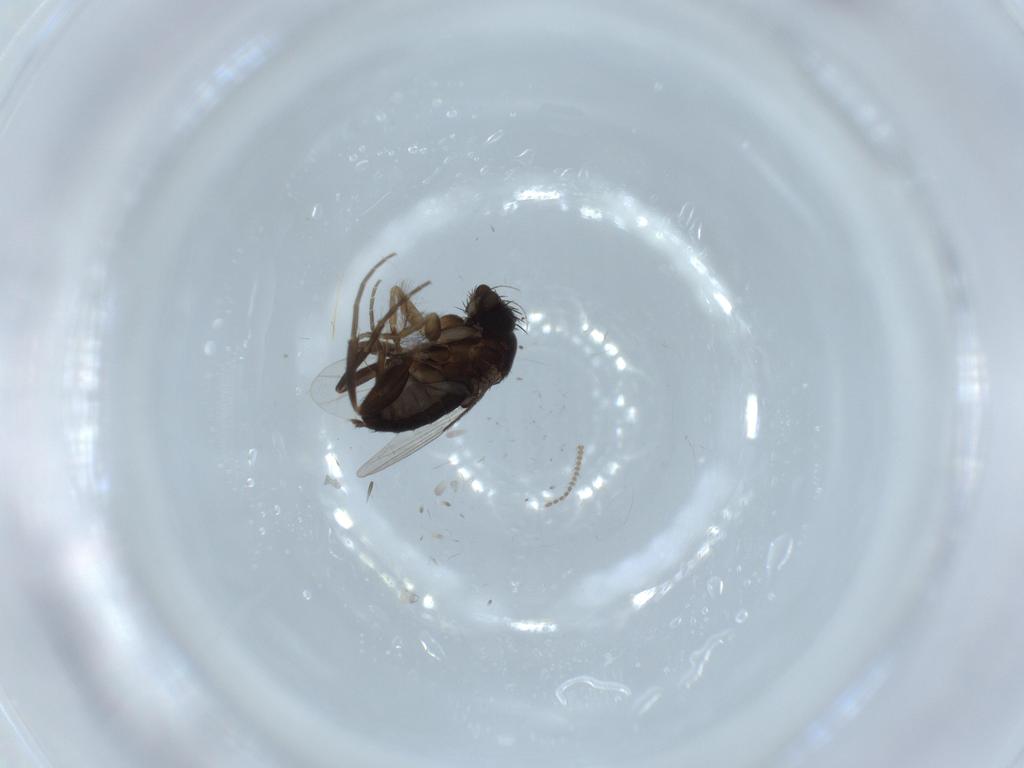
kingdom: Animalia
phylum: Arthropoda
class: Insecta
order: Diptera
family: Cecidomyiidae
